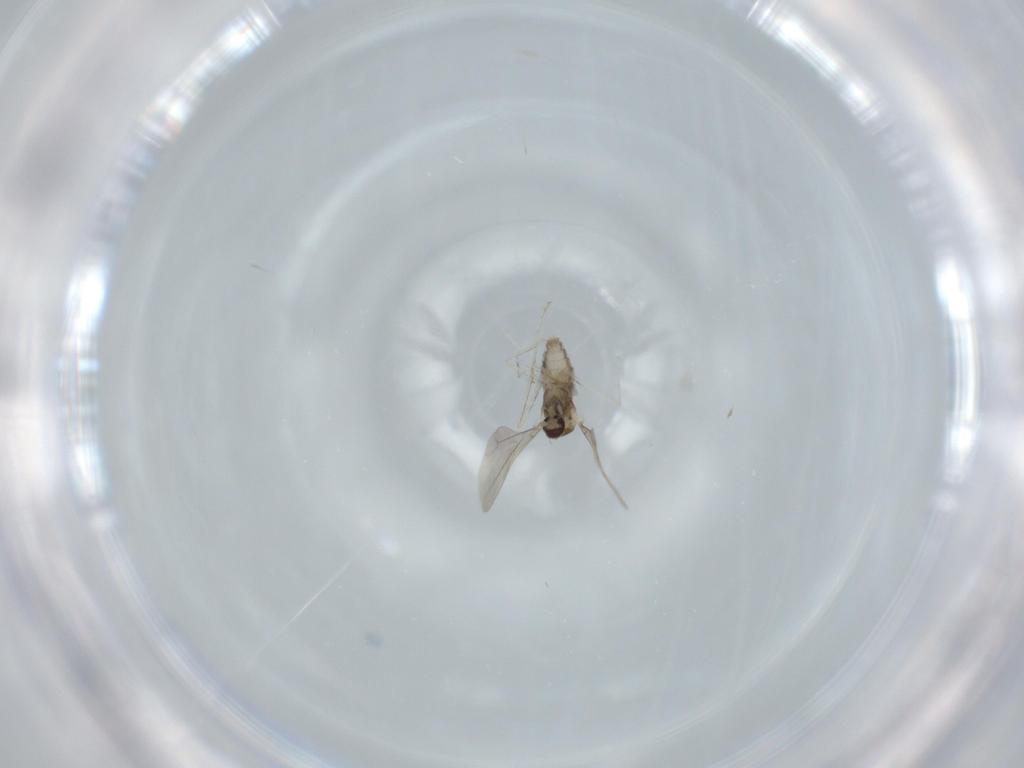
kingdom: Animalia
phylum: Arthropoda
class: Insecta
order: Diptera
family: Cecidomyiidae
